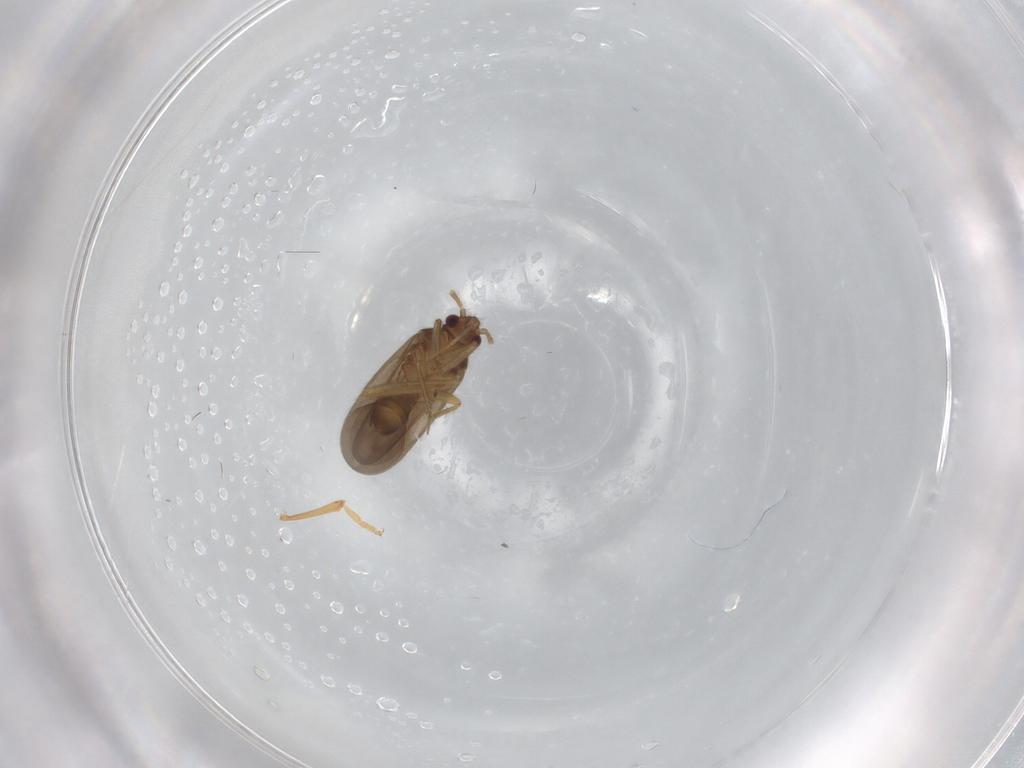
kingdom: Animalia
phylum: Arthropoda
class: Insecta
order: Hemiptera
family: Ceratocombidae
